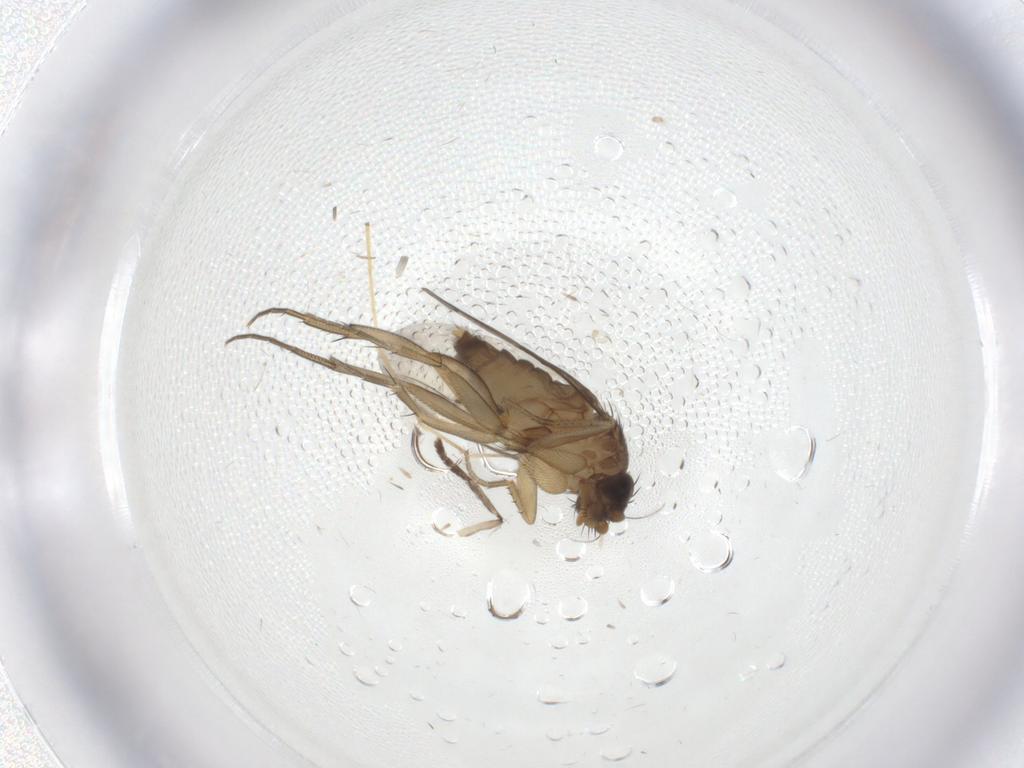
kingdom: Animalia
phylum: Arthropoda
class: Insecta
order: Diptera
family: Phoridae
